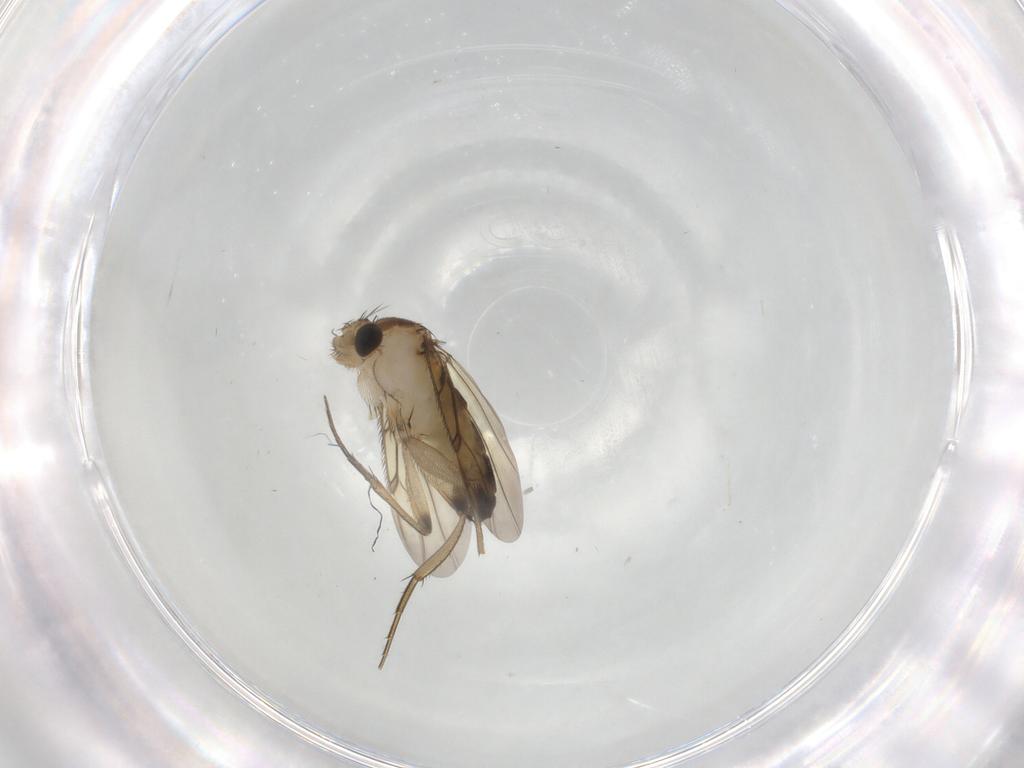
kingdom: Animalia
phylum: Arthropoda
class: Insecta
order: Diptera
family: Phoridae
